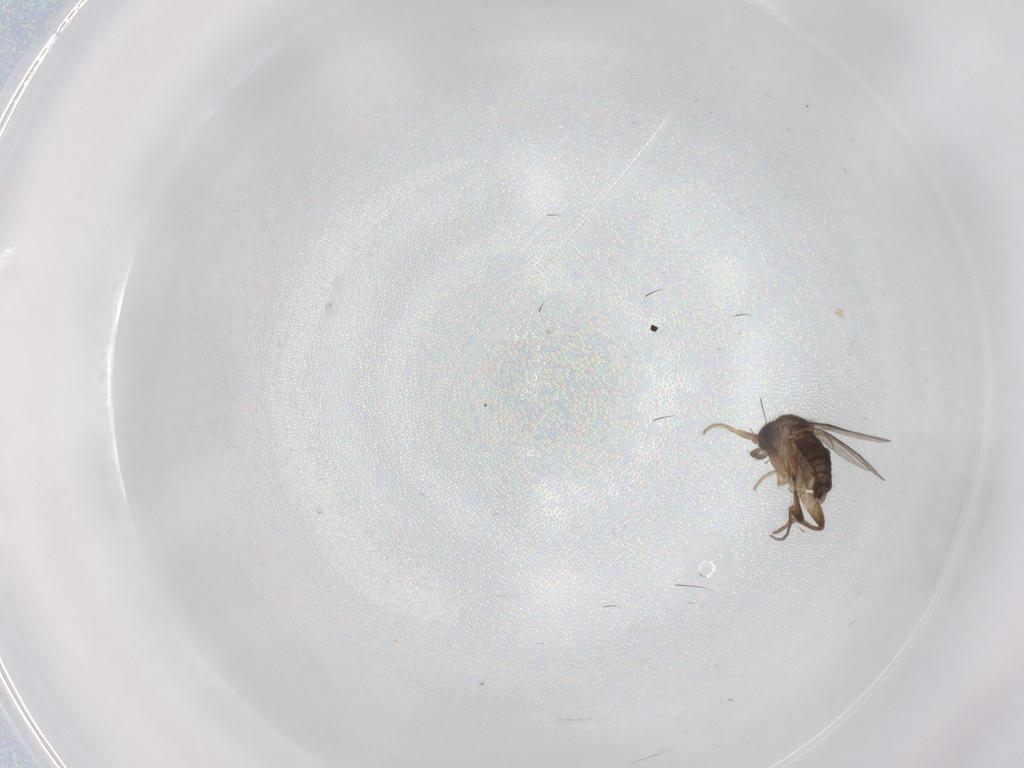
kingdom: Animalia
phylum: Arthropoda
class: Insecta
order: Diptera
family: Phoridae
